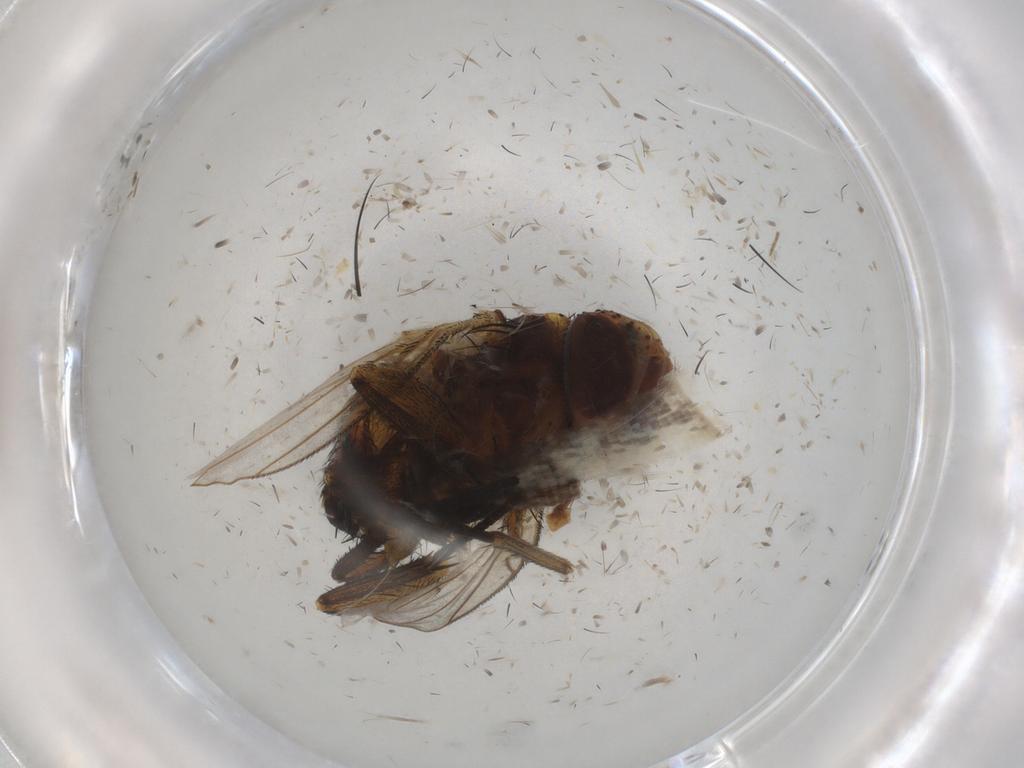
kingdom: Animalia
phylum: Arthropoda
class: Insecta
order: Diptera
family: Muscidae
